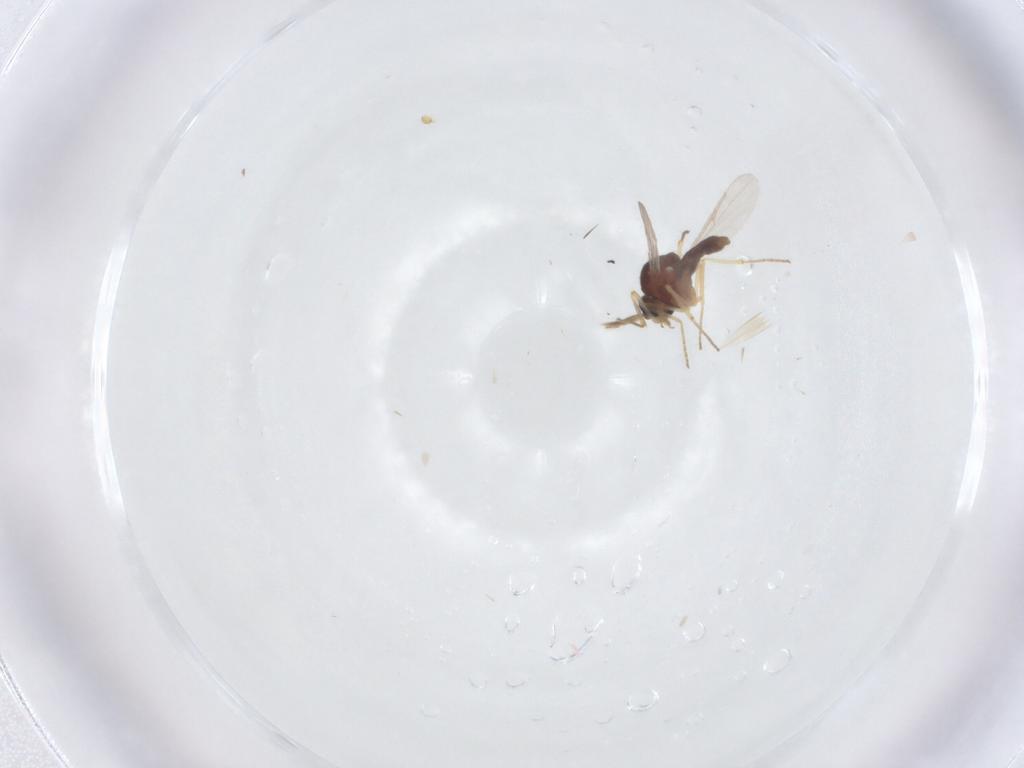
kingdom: Animalia
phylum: Arthropoda
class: Insecta
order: Diptera
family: Ceratopogonidae
